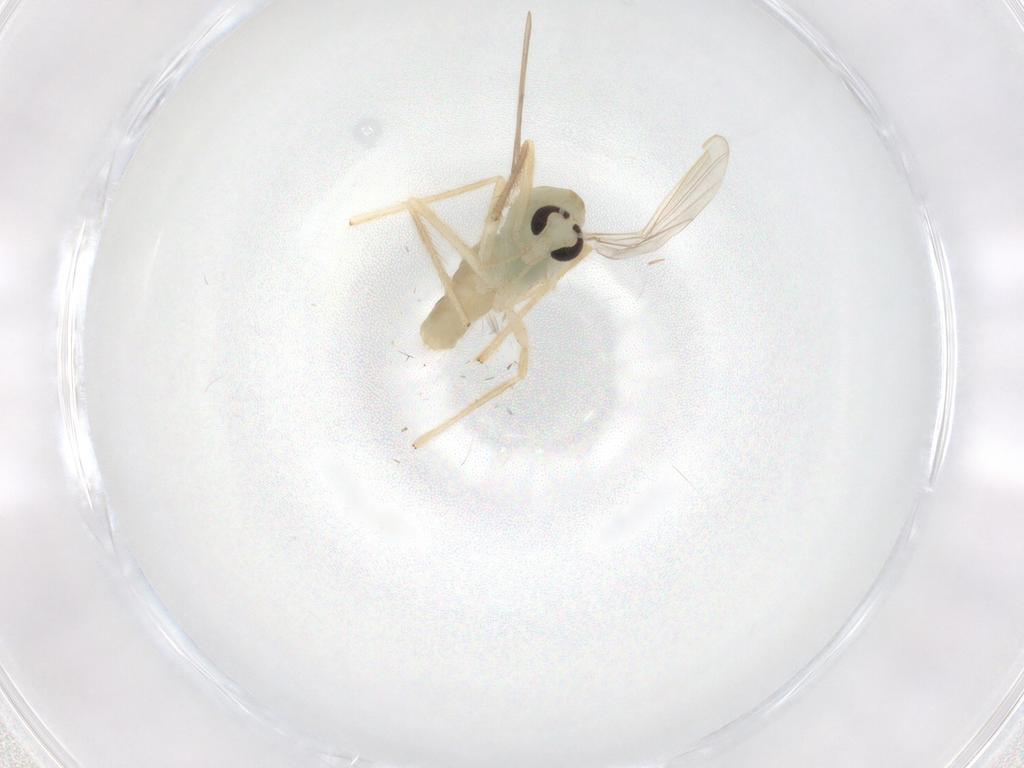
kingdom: Animalia
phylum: Arthropoda
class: Insecta
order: Diptera
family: Chironomidae
